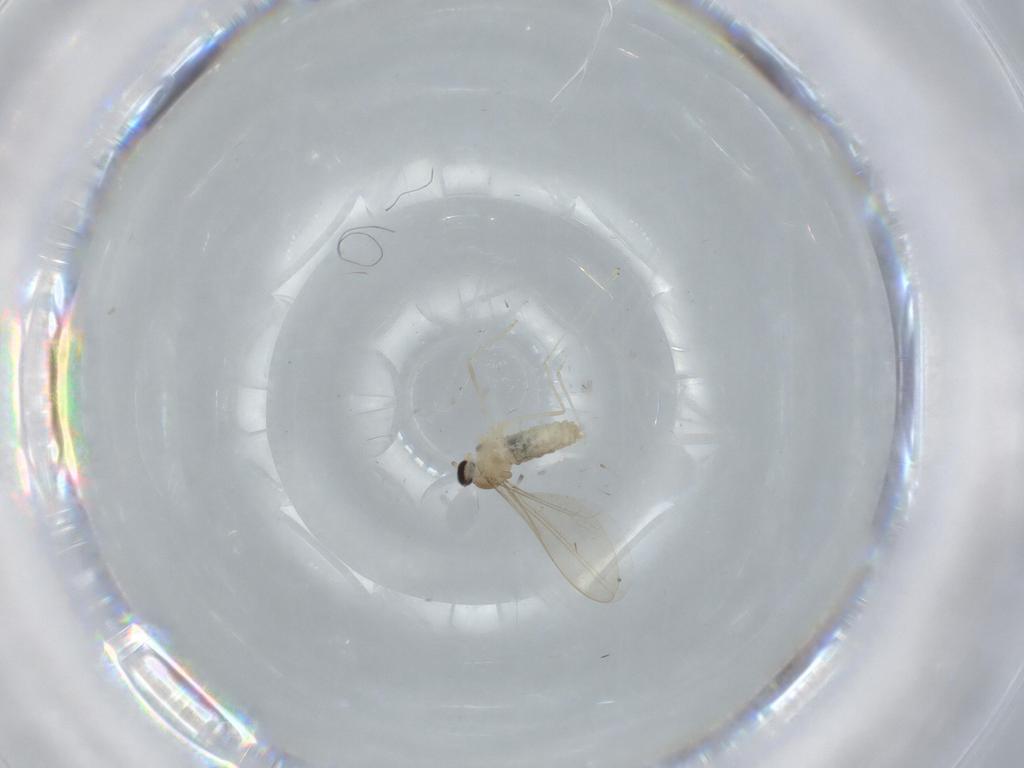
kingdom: Animalia
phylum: Arthropoda
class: Insecta
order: Diptera
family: Cecidomyiidae
